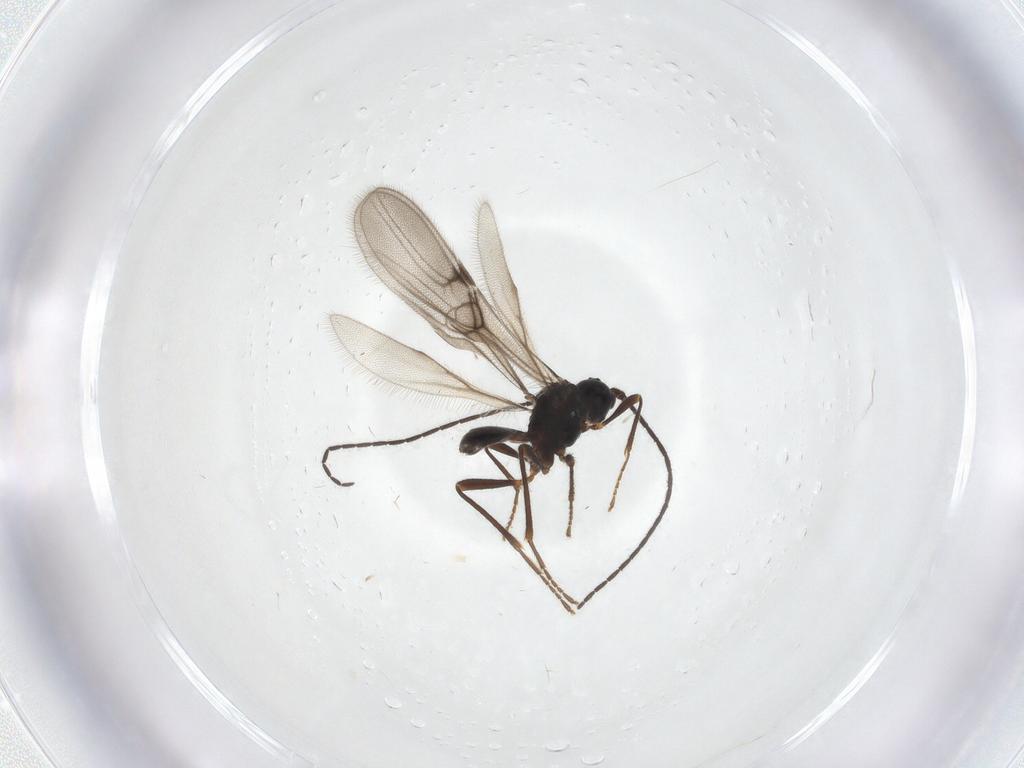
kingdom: Animalia
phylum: Arthropoda
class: Insecta
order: Hymenoptera
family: Braconidae
